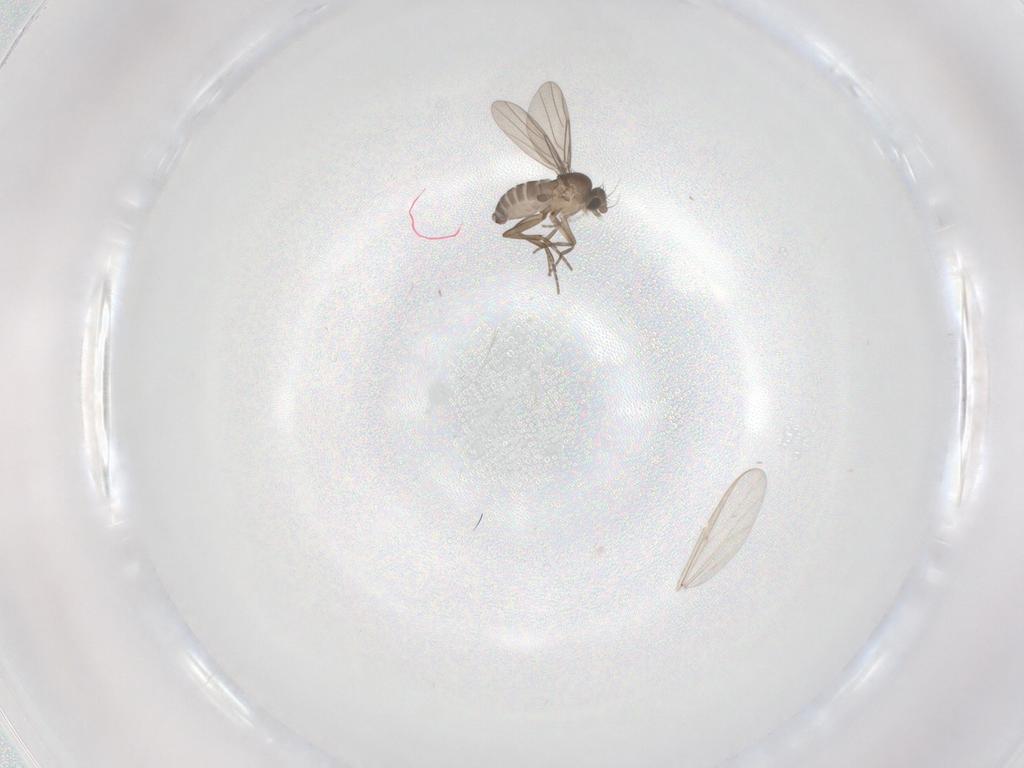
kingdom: Animalia
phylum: Arthropoda
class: Insecta
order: Diptera
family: Chironomidae
